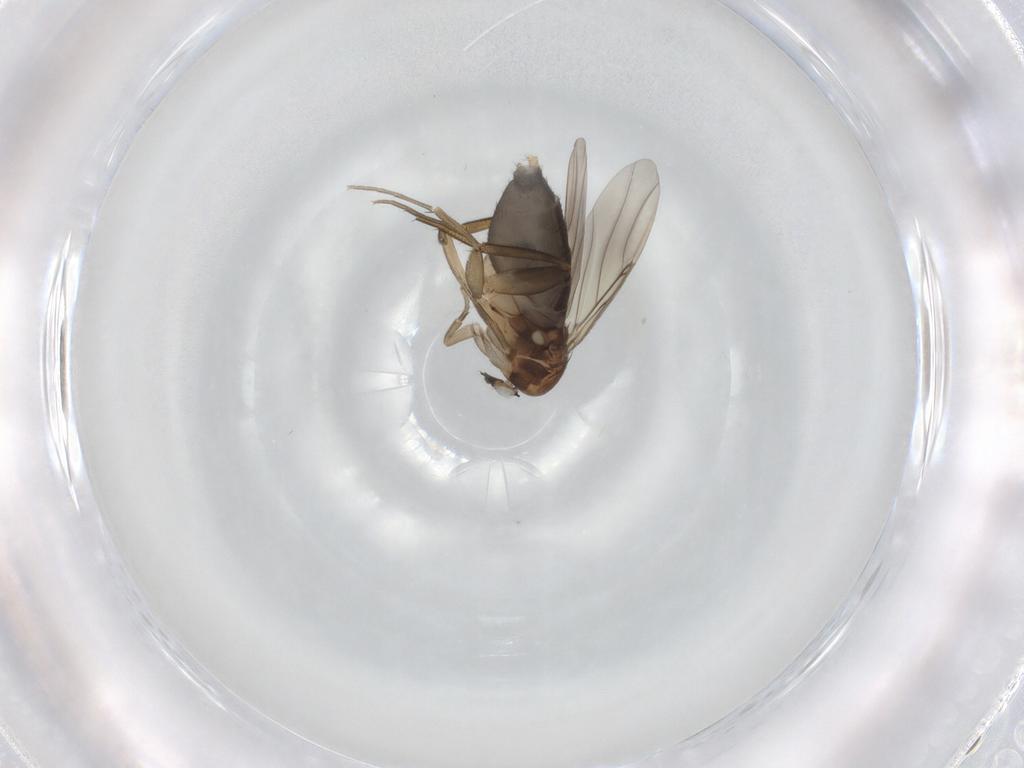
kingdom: Animalia
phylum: Arthropoda
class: Insecta
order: Diptera
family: Phoridae
